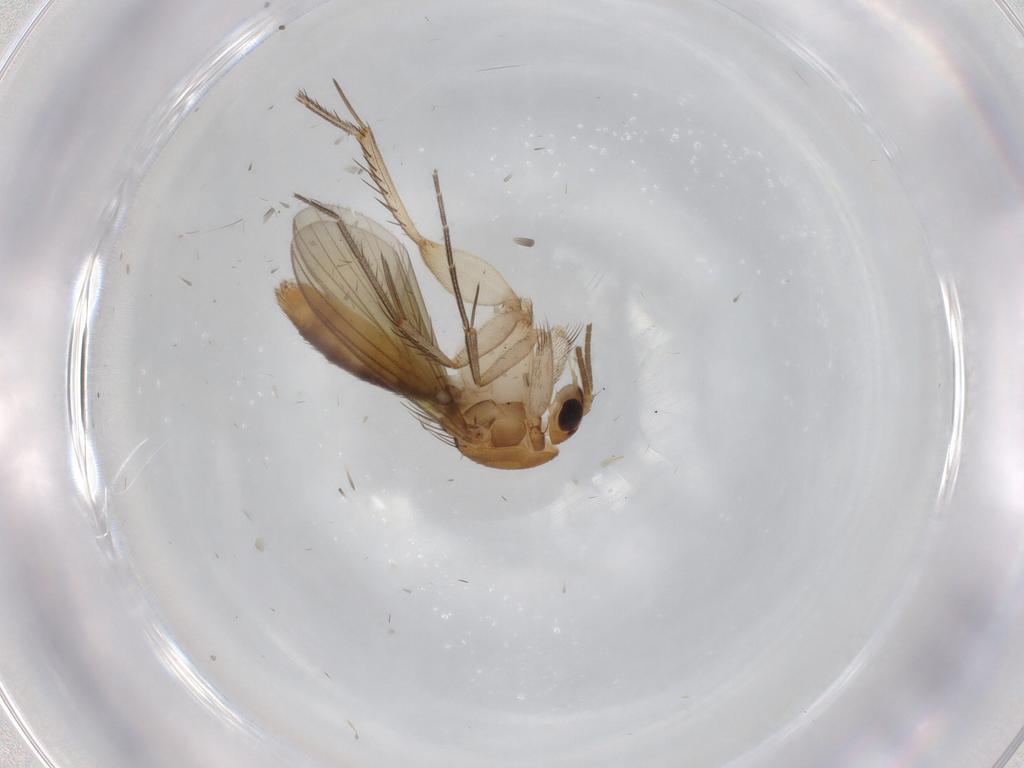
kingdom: Animalia
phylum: Arthropoda
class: Insecta
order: Diptera
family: Mycetophilidae
